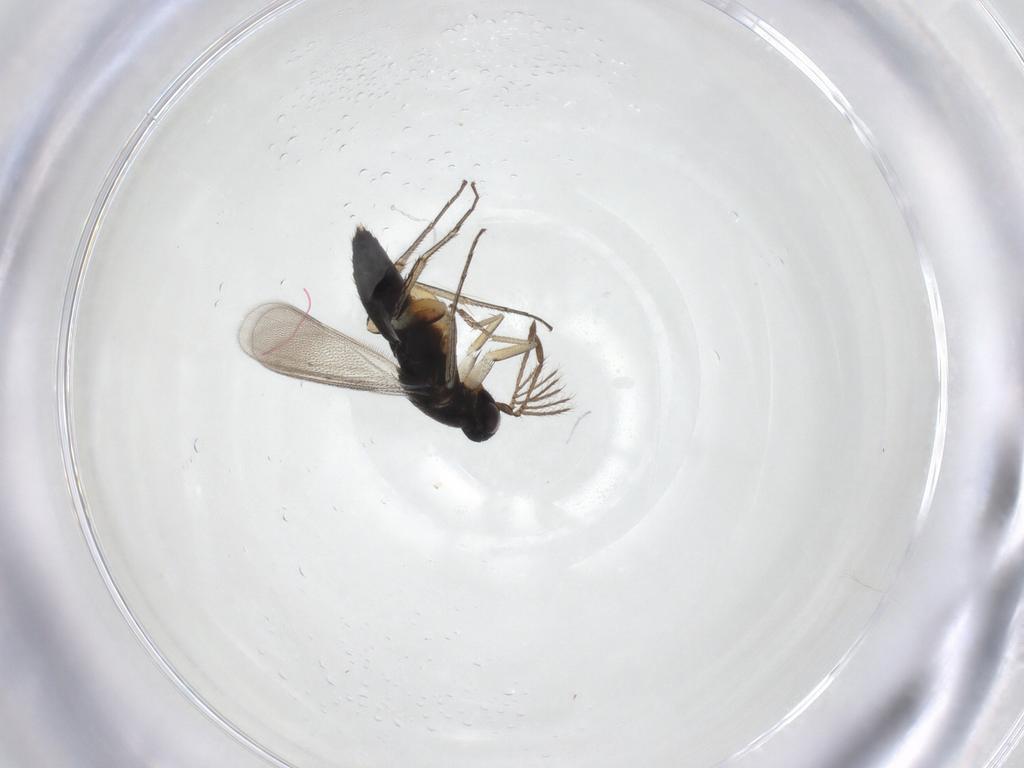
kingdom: Animalia
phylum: Arthropoda
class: Insecta
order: Hymenoptera
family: Eulophidae
